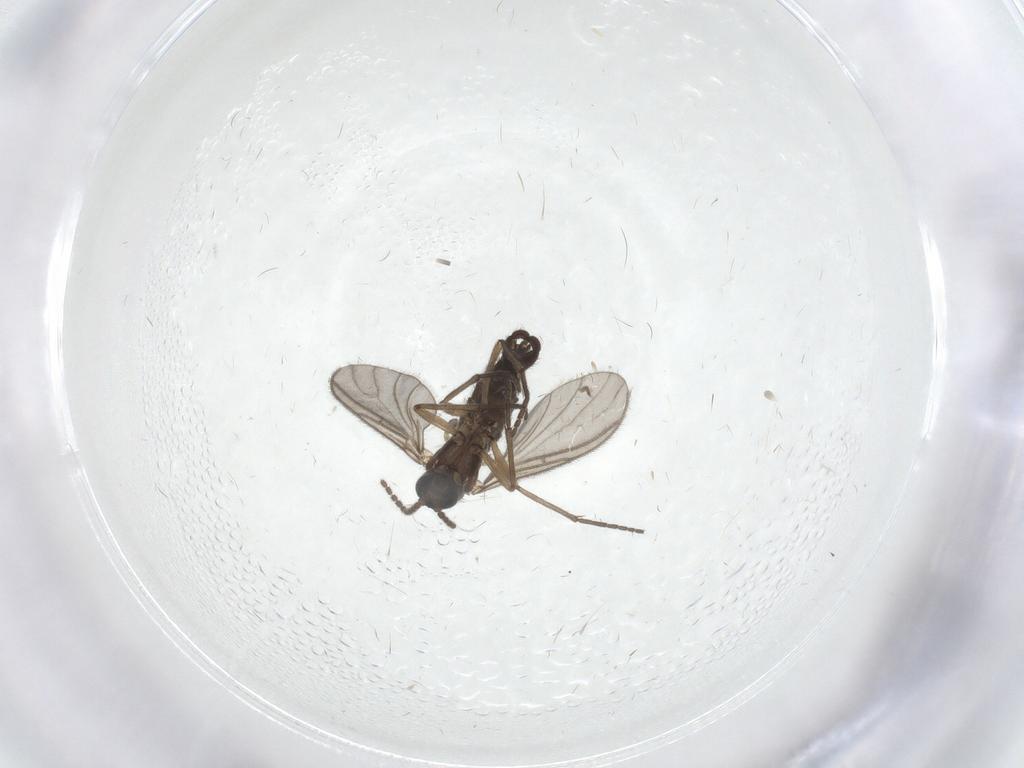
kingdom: Animalia
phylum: Arthropoda
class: Insecta
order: Diptera
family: Sciaridae
